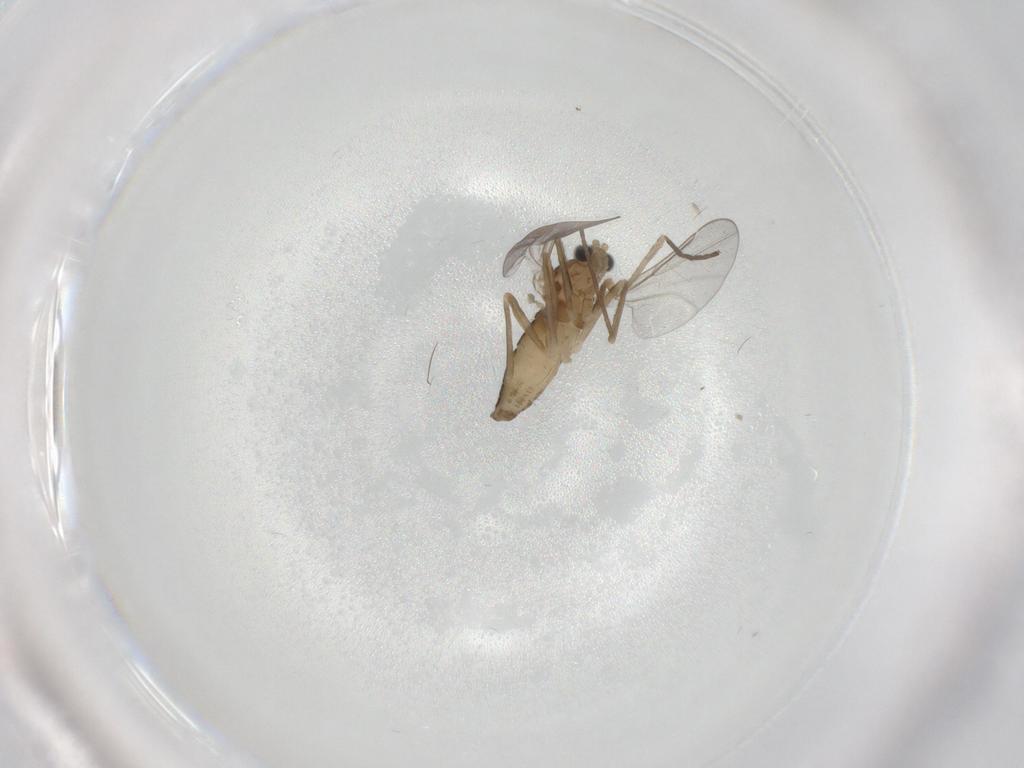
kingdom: Animalia
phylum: Arthropoda
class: Insecta
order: Diptera
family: Cecidomyiidae
